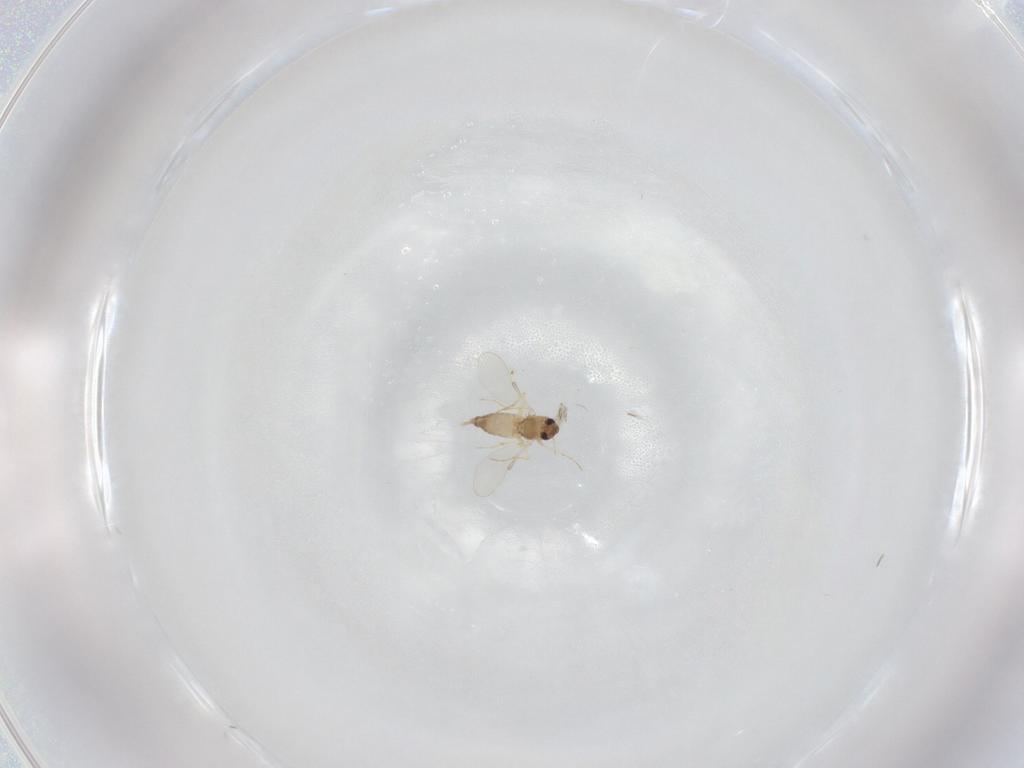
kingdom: Animalia
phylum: Arthropoda
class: Insecta
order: Diptera
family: Chironomidae
